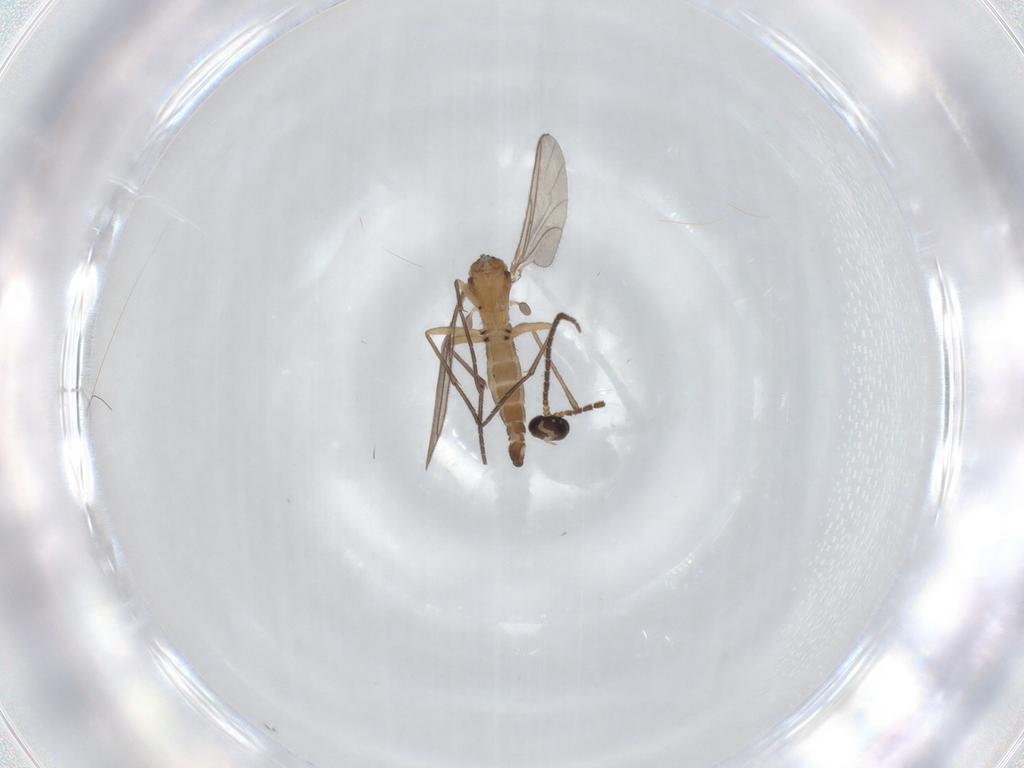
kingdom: Animalia
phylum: Arthropoda
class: Insecta
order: Diptera
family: Sciaridae
